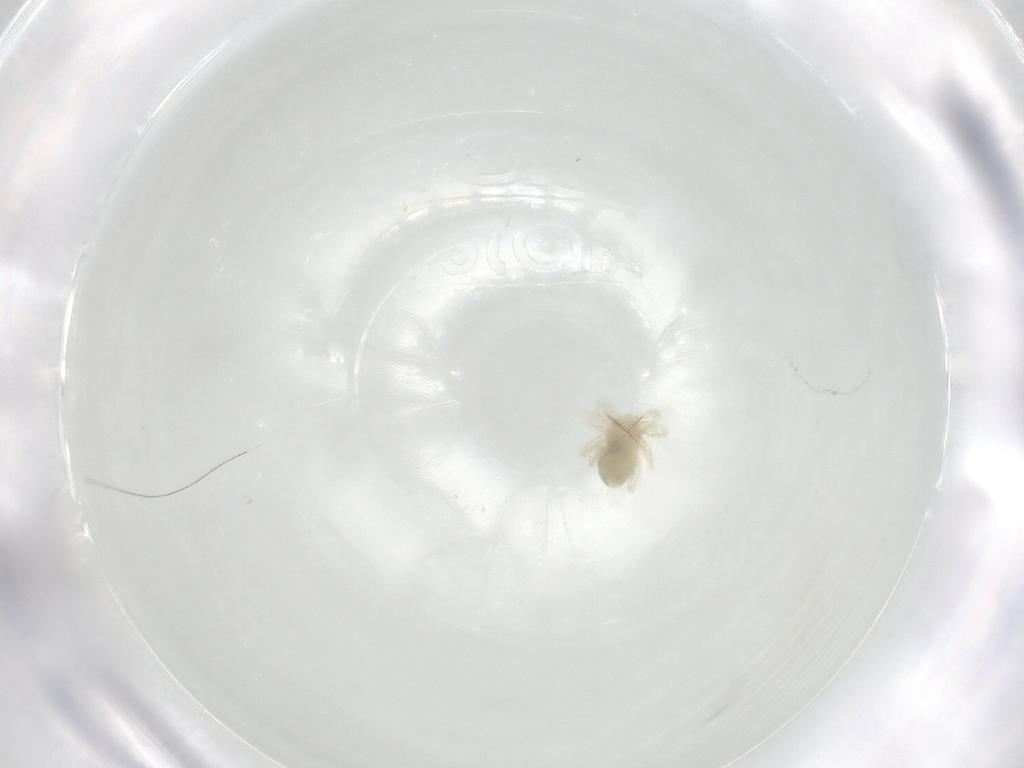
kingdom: Animalia
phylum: Arthropoda
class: Arachnida
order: Trombidiformes
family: Anystidae
